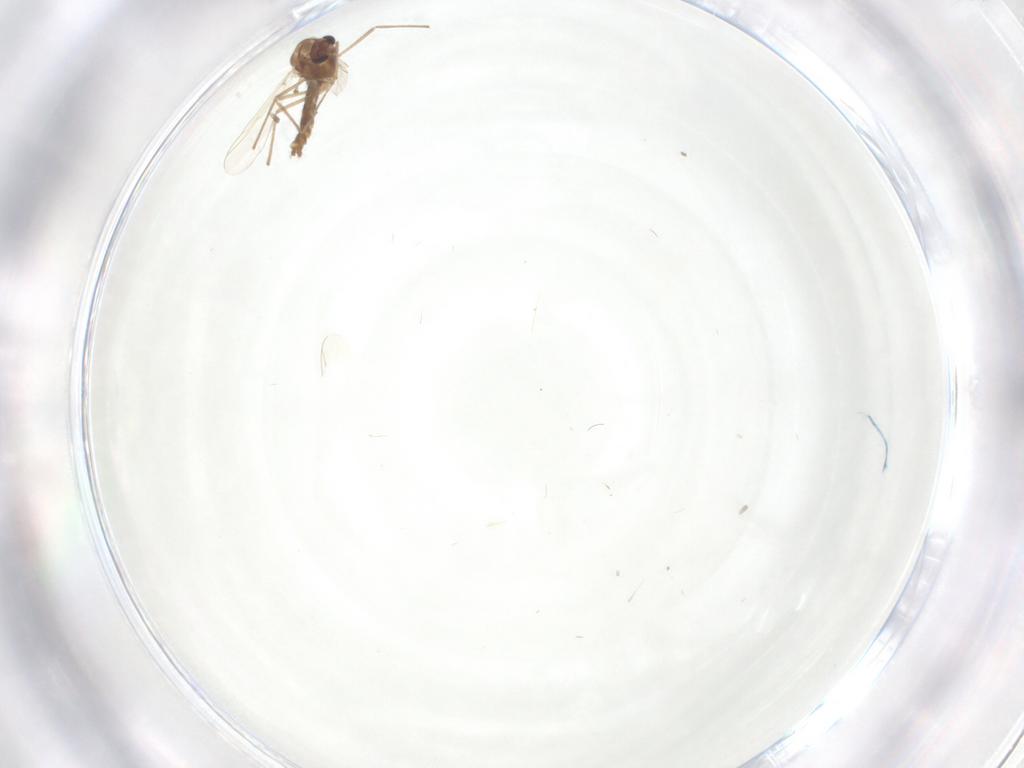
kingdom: Animalia
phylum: Arthropoda
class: Insecta
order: Diptera
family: Chironomidae
